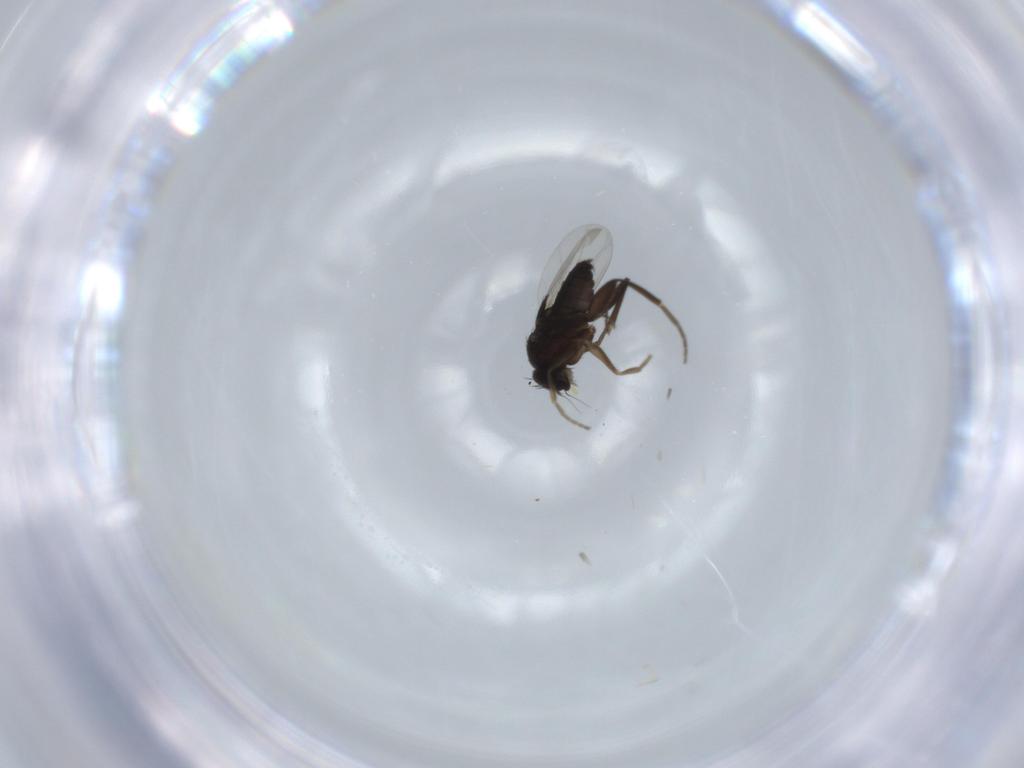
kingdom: Animalia
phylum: Arthropoda
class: Insecta
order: Diptera
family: Phoridae
